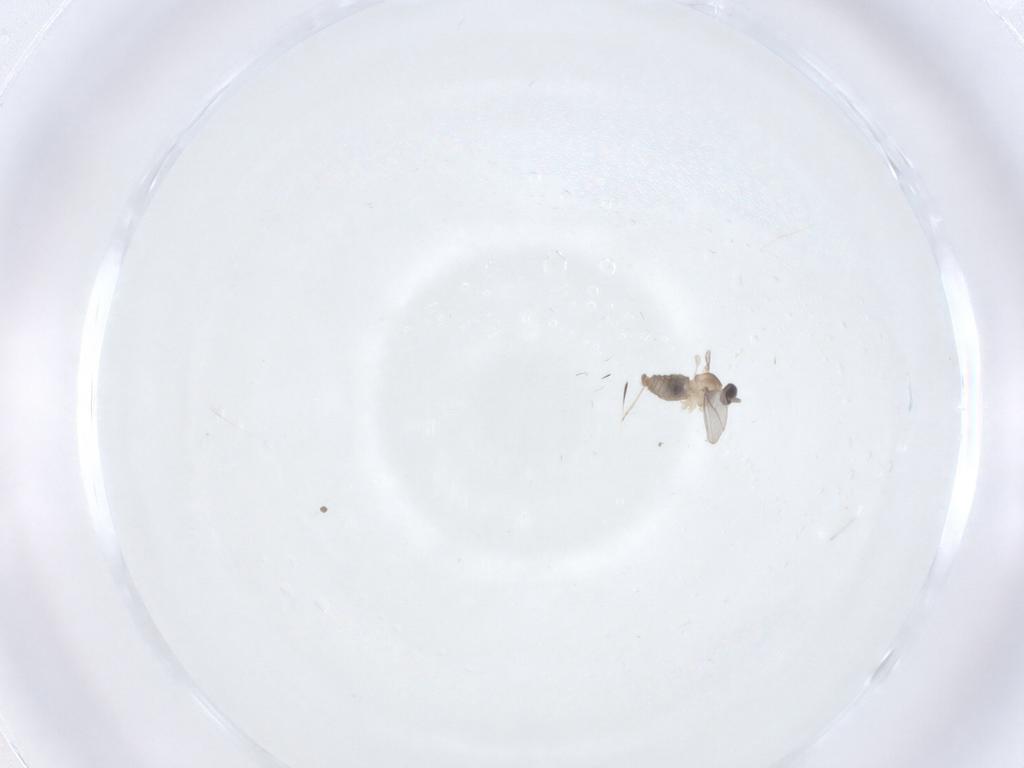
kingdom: Animalia
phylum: Arthropoda
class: Insecta
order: Diptera
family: Cecidomyiidae
